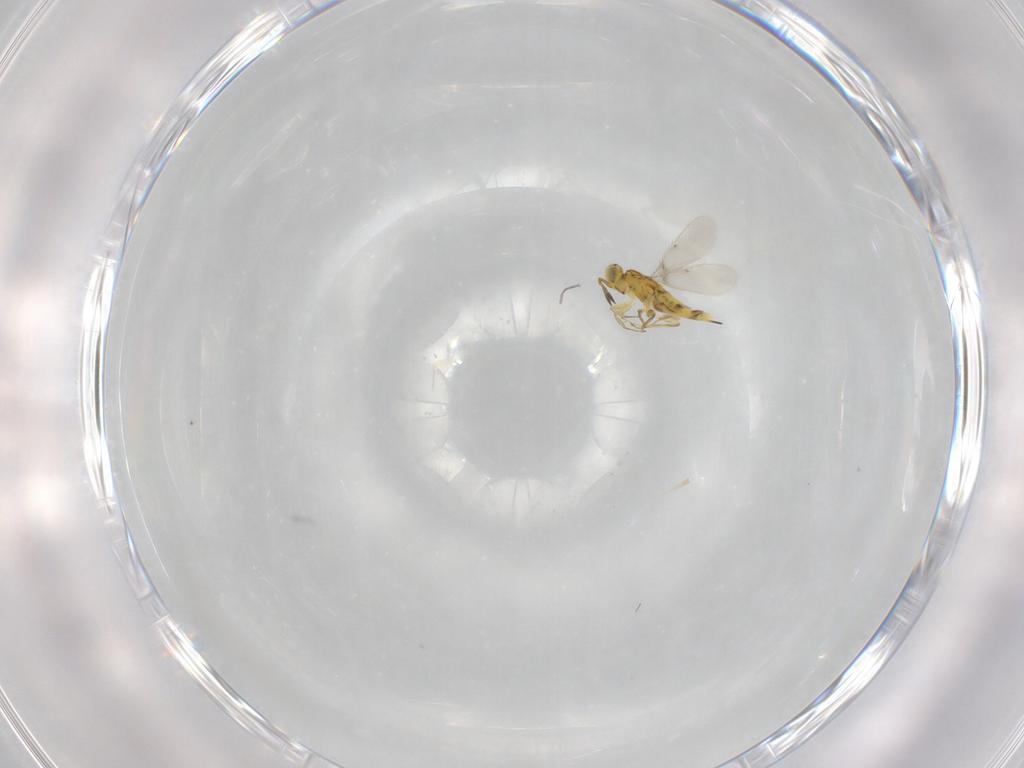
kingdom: Animalia
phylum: Arthropoda
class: Insecta
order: Hymenoptera
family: Aphelinidae
